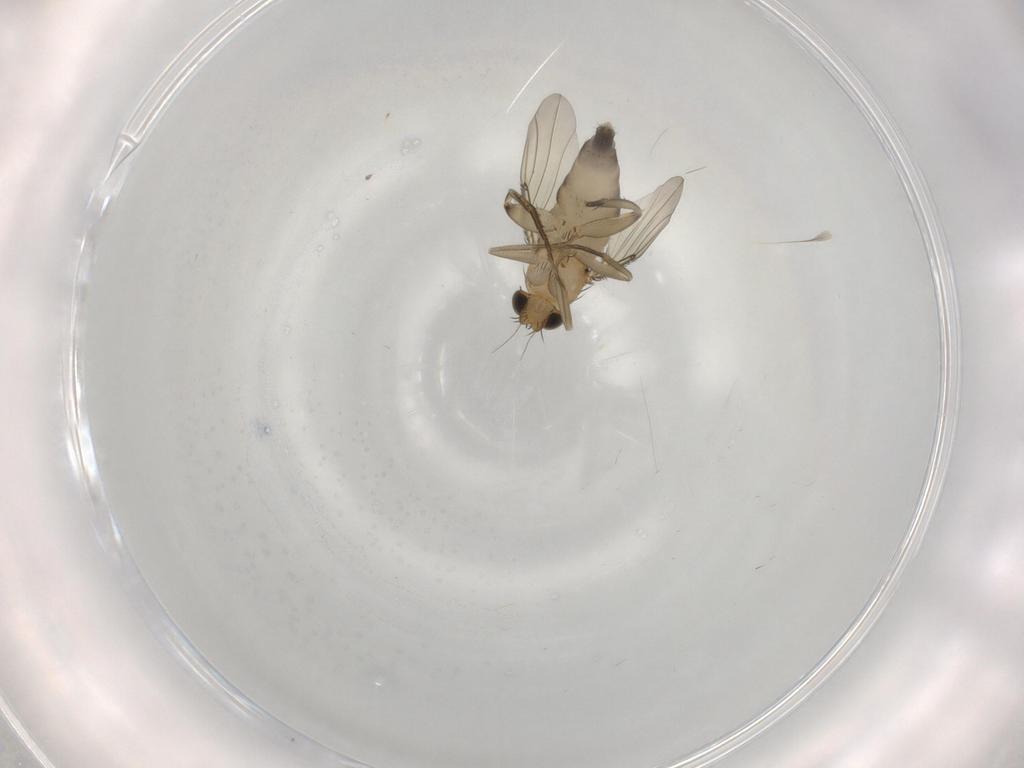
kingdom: Animalia
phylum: Arthropoda
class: Insecta
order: Diptera
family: Phoridae
